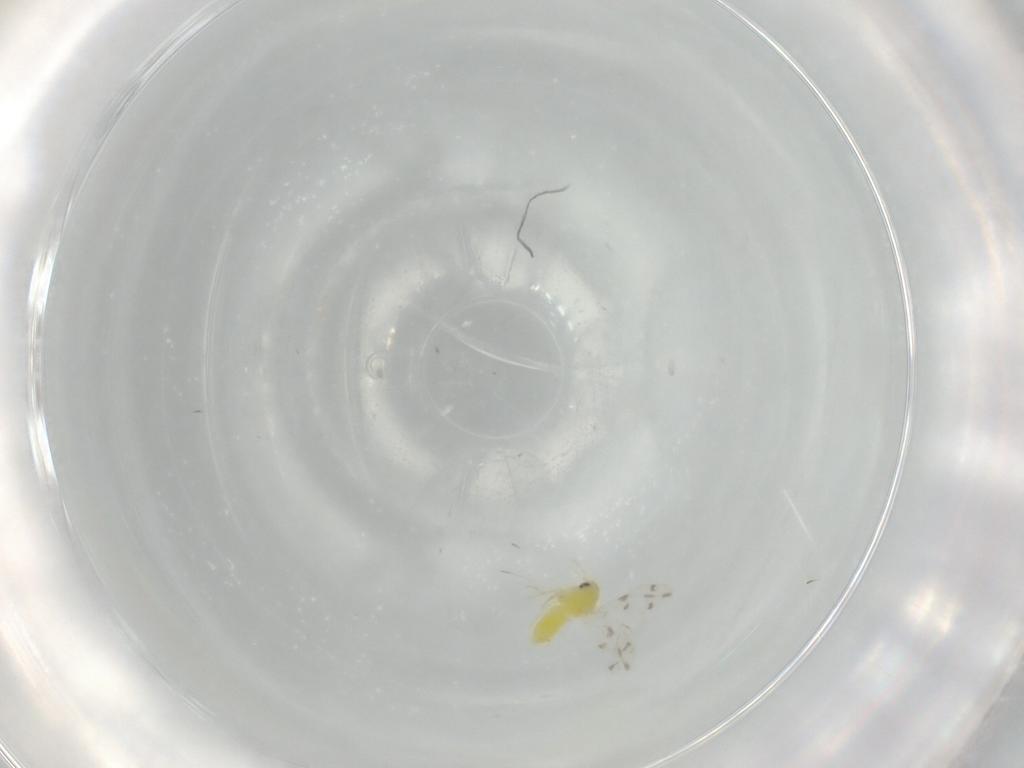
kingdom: Animalia
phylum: Arthropoda
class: Insecta
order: Hemiptera
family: Aleyrodidae
